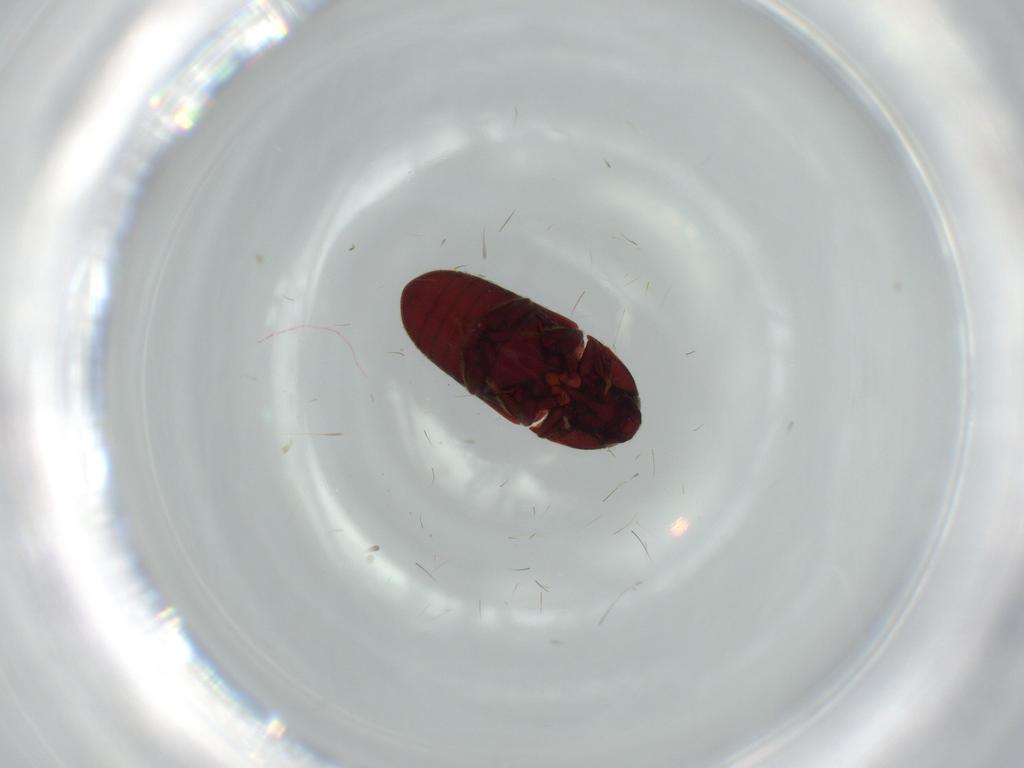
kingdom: Animalia
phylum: Arthropoda
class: Insecta
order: Coleoptera
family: Throscidae
